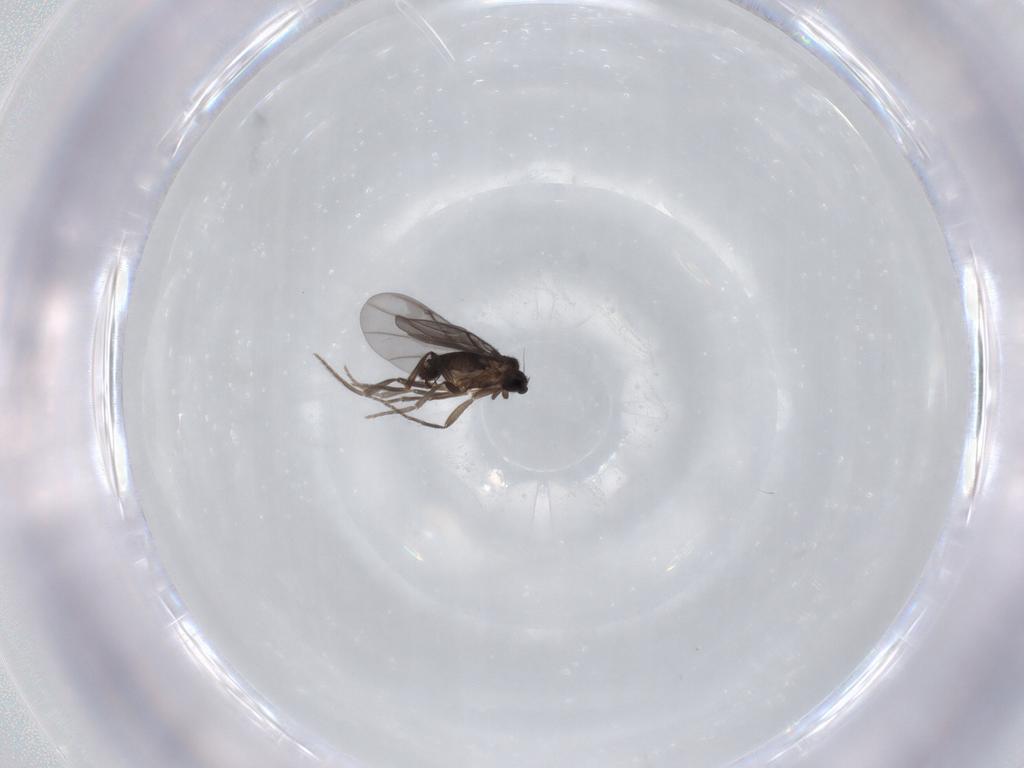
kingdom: Animalia
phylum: Arthropoda
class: Insecta
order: Diptera
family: Phoridae
